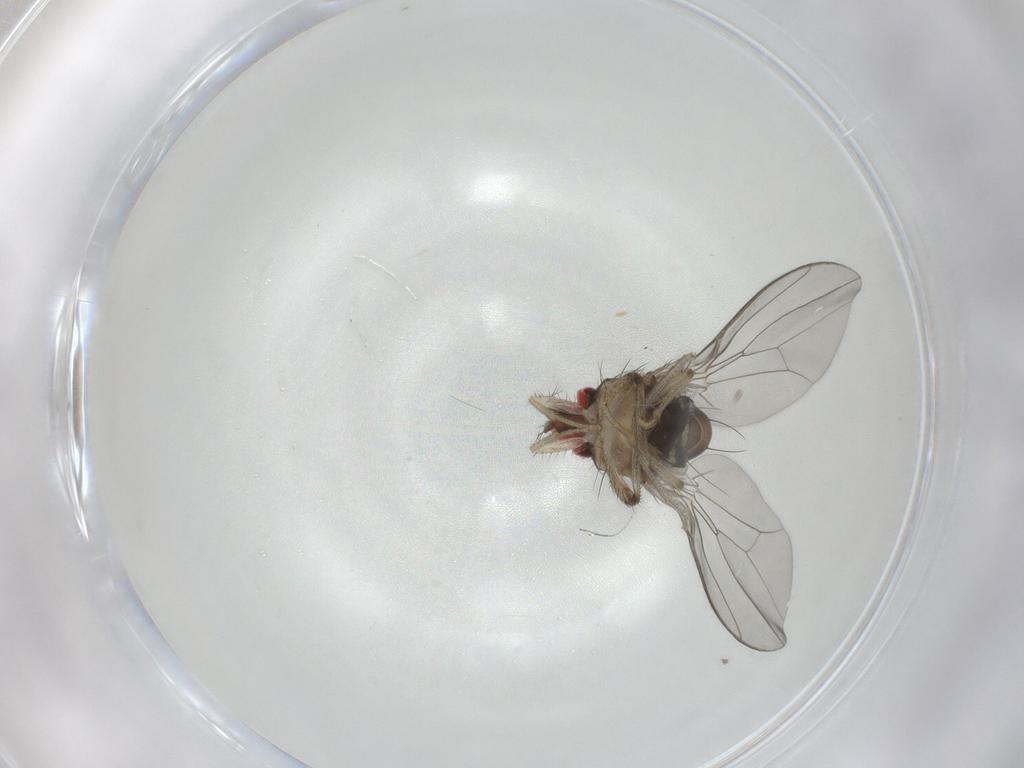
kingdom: Animalia
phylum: Arthropoda
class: Insecta
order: Diptera
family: Drosophilidae
